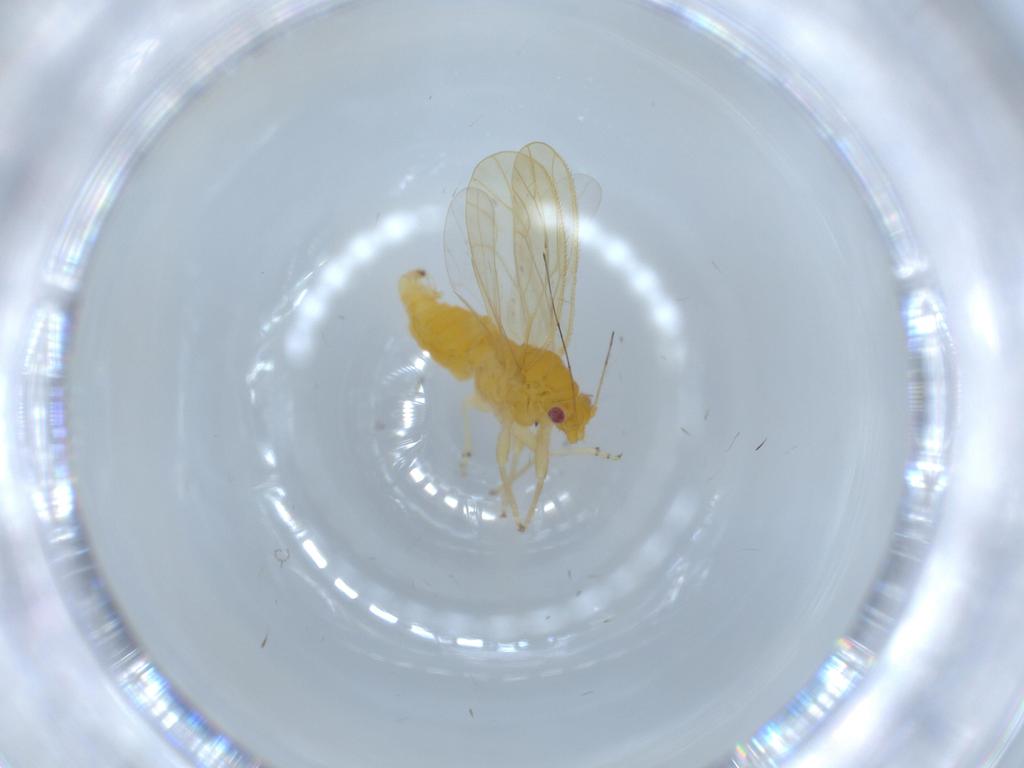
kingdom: Animalia
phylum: Arthropoda
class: Insecta
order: Hemiptera
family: Psyllidae
